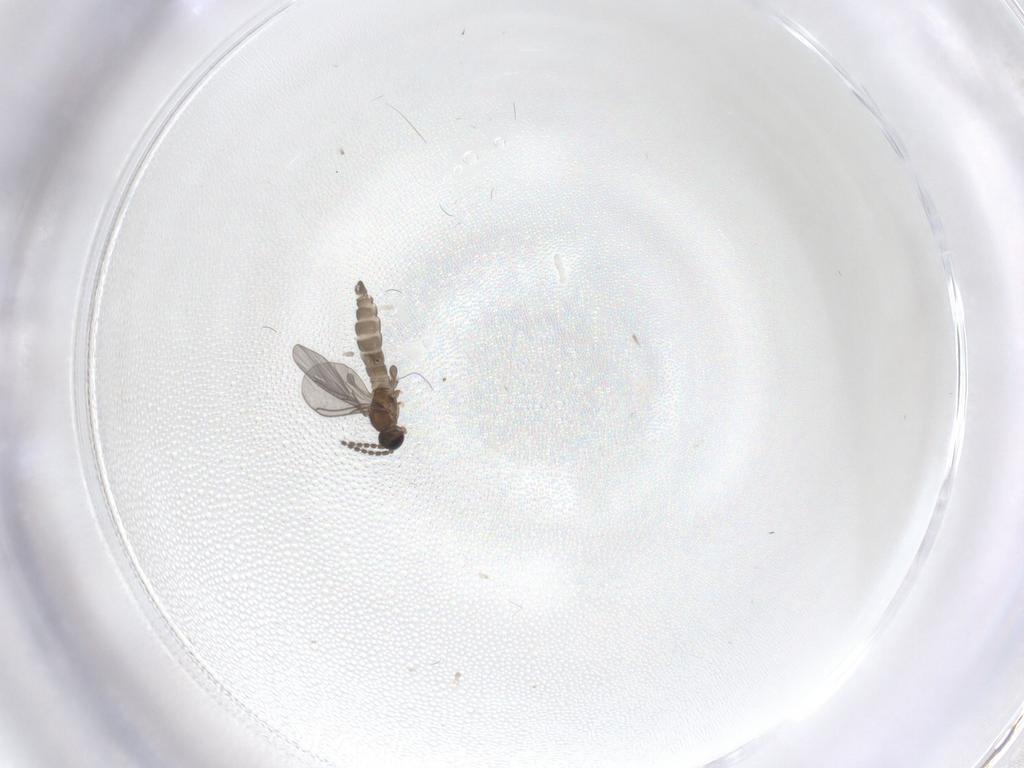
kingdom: Animalia
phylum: Arthropoda
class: Insecta
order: Diptera
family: Sciaridae
